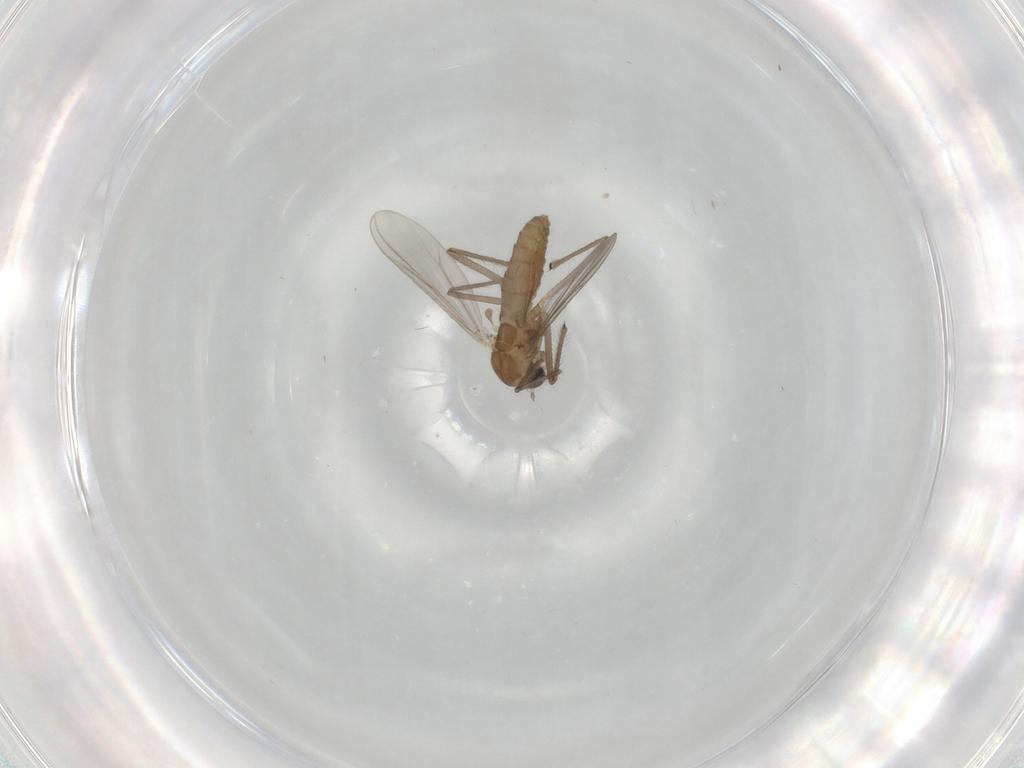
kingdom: Animalia
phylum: Arthropoda
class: Insecta
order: Diptera
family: Chironomidae
